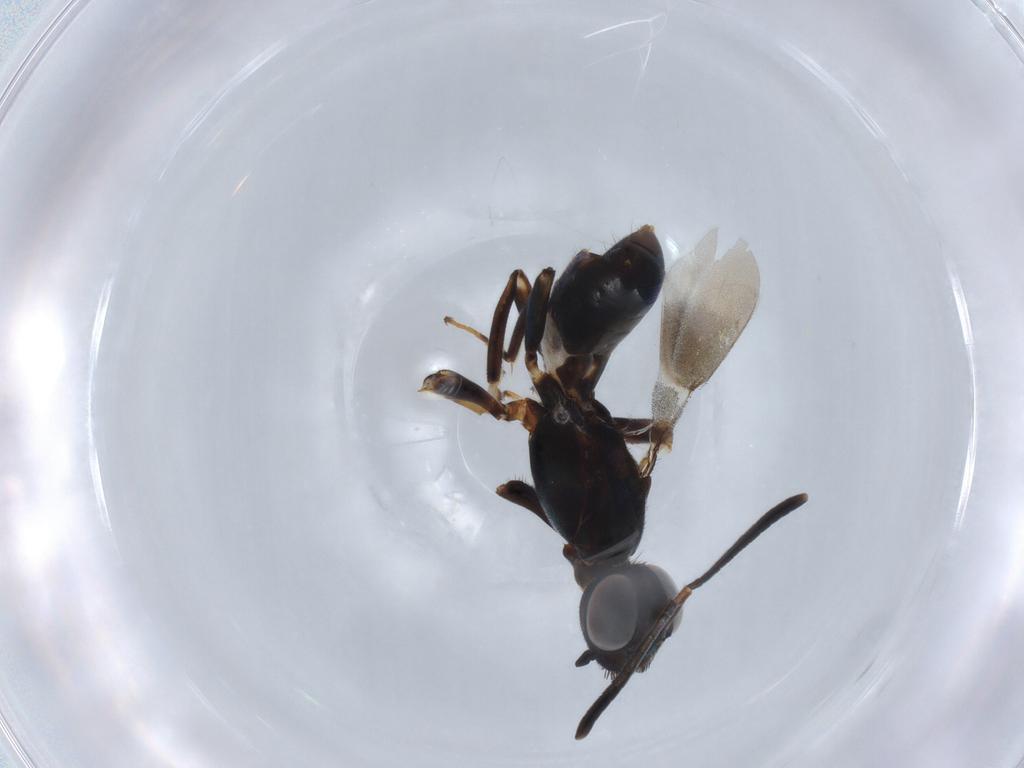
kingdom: Animalia
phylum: Arthropoda
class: Insecta
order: Hymenoptera
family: Eupelmidae
